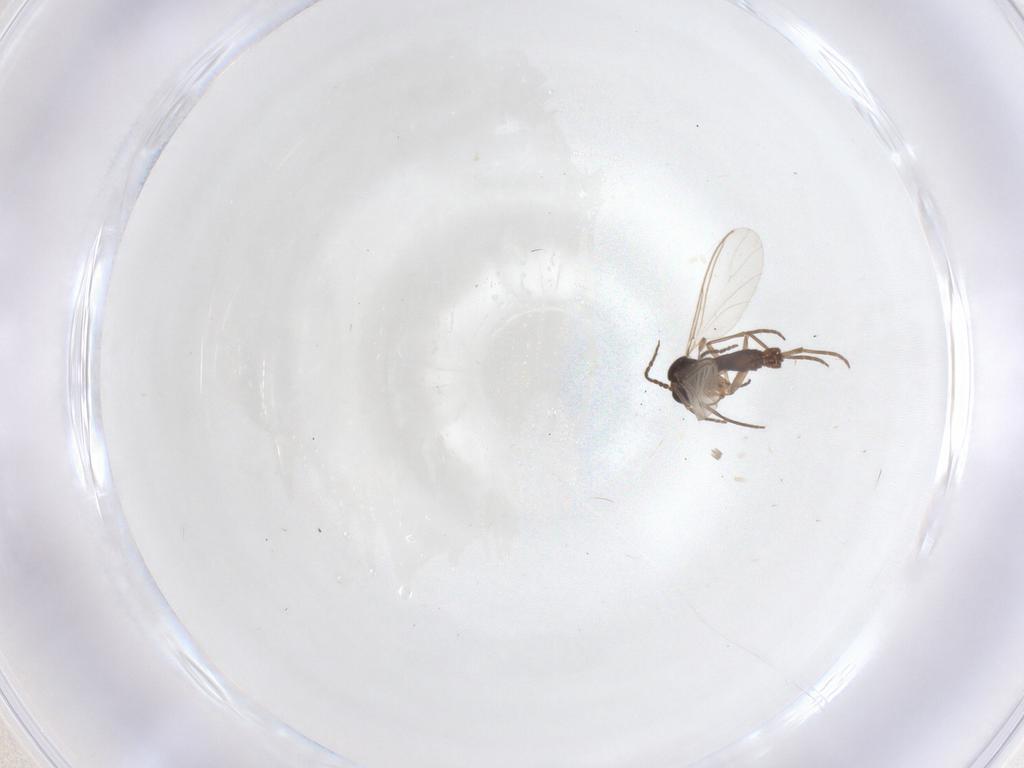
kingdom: Animalia
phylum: Arthropoda
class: Insecta
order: Diptera
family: Sciaridae
